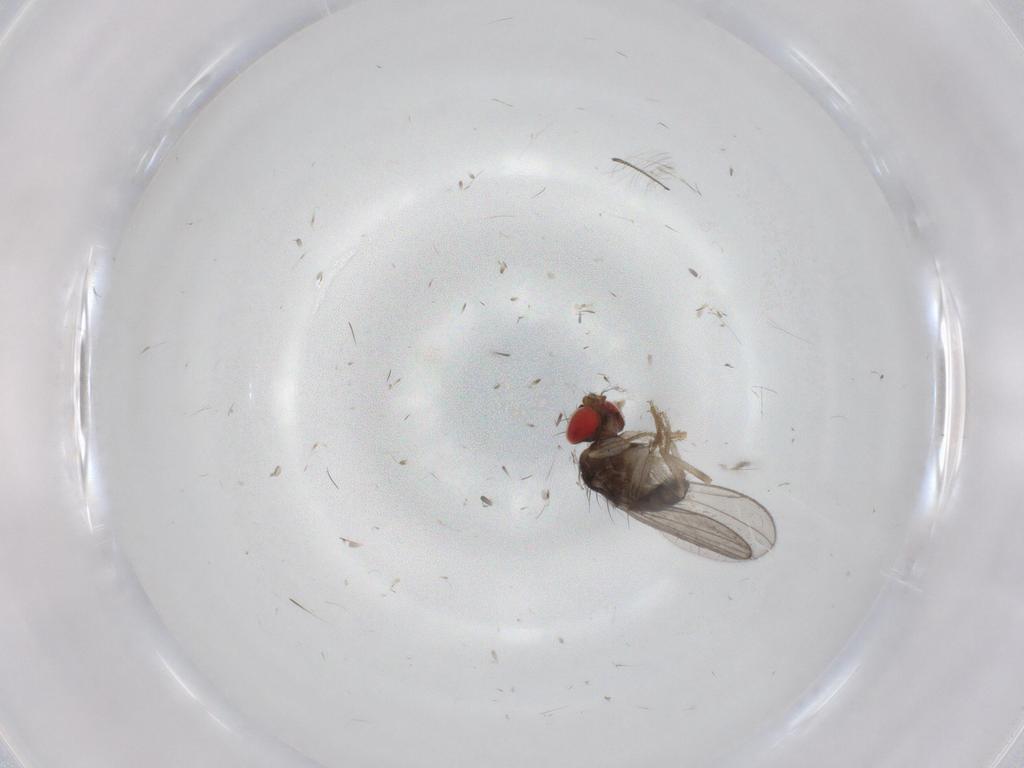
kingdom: Animalia
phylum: Arthropoda
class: Insecta
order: Diptera
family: Drosophilidae
